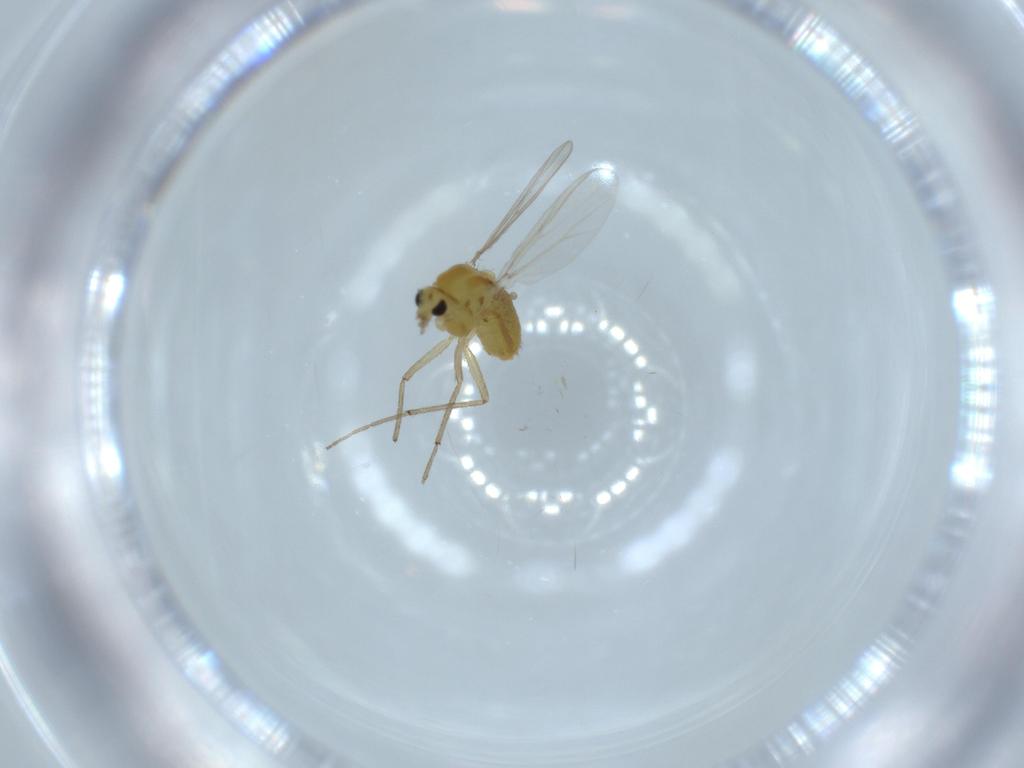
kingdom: Animalia
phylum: Arthropoda
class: Insecta
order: Diptera
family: Chironomidae
